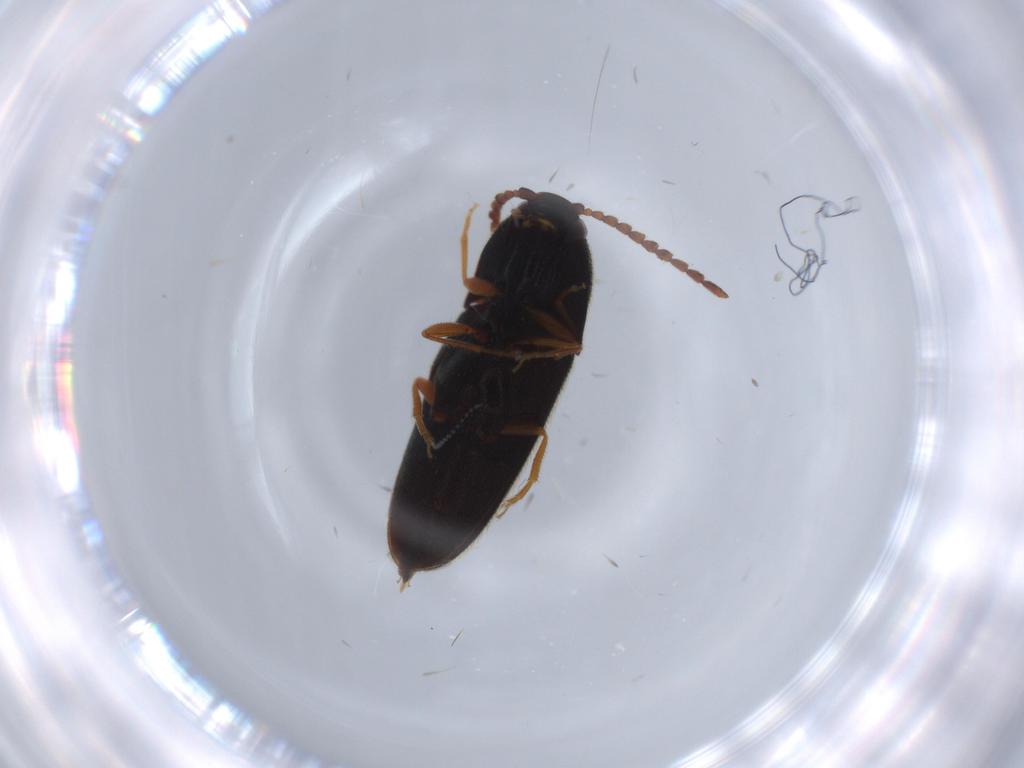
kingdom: Animalia
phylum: Arthropoda
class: Insecta
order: Coleoptera
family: Elateridae
